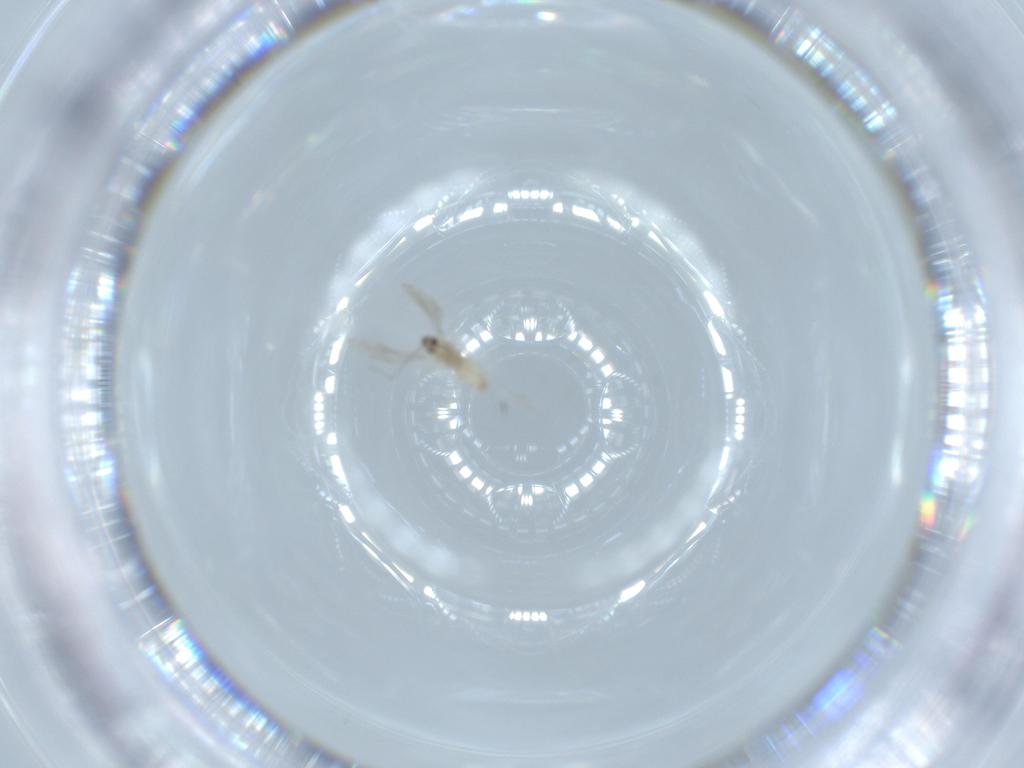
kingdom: Animalia
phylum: Arthropoda
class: Insecta
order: Diptera
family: Cecidomyiidae
